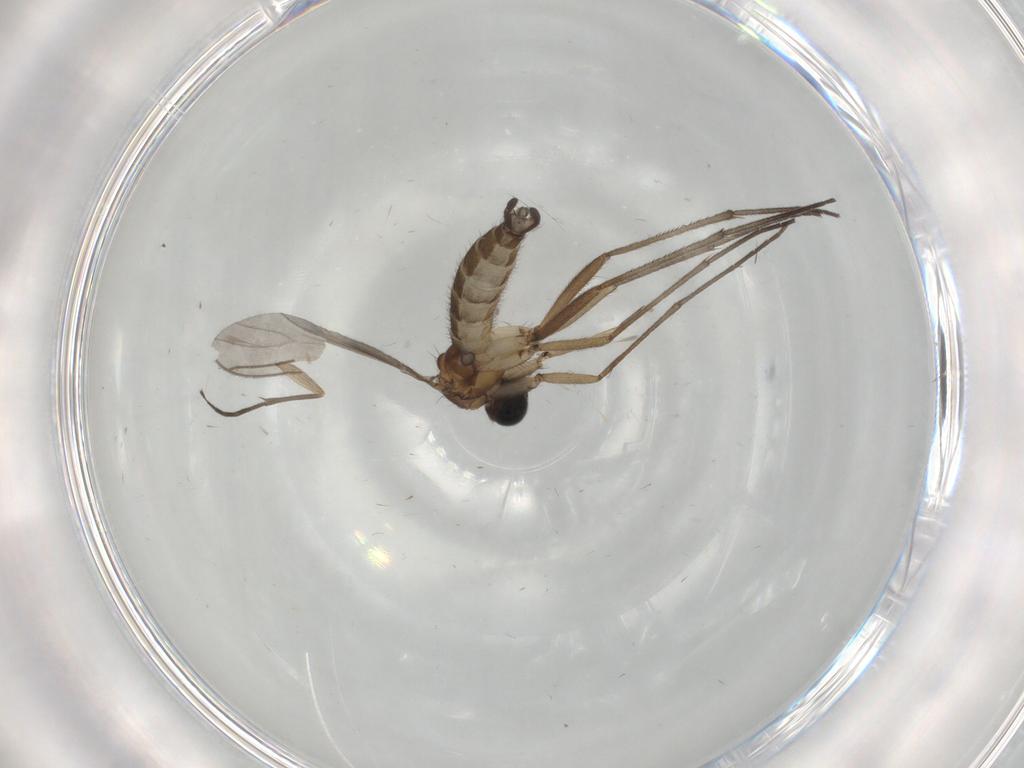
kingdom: Animalia
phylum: Arthropoda
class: Insecta
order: Diptera
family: Sciaridae
